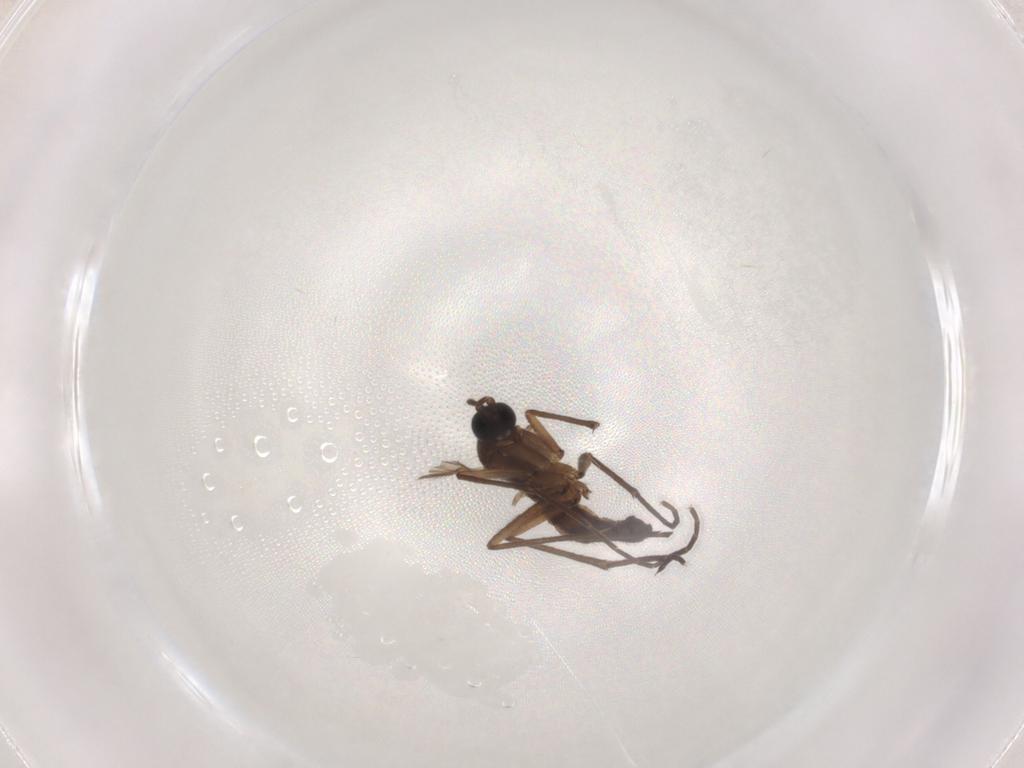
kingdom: Animalia
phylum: Arthropoda
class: Insecta
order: Diptera
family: Sciaridae
